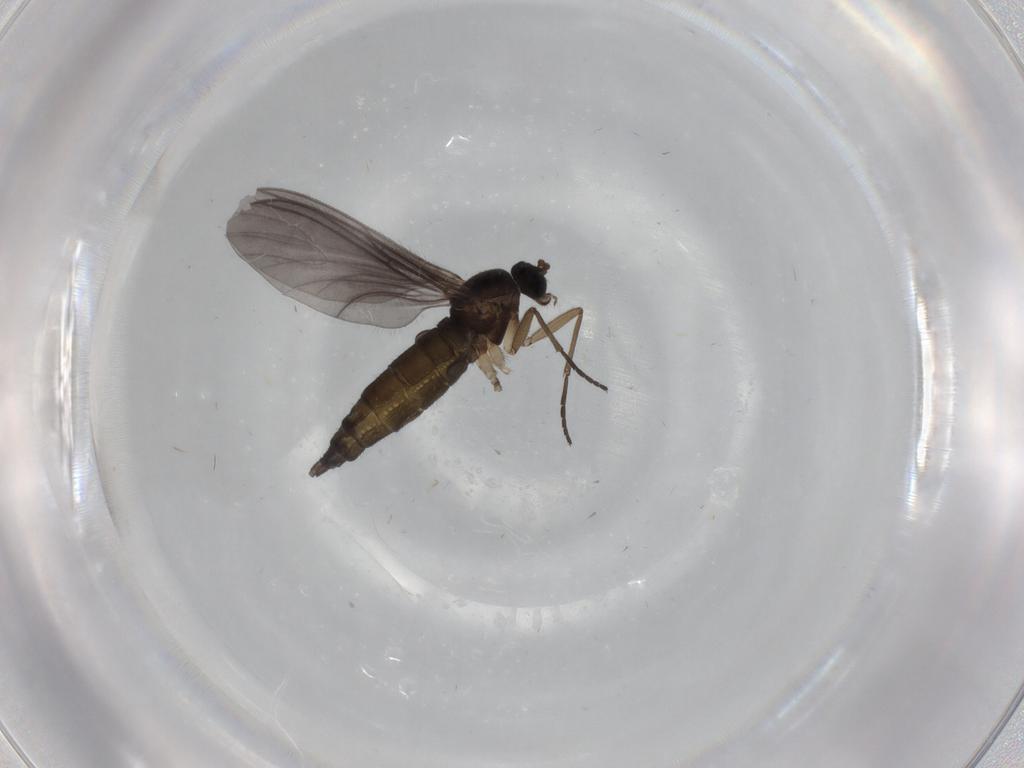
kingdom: Animalia
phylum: Arthropoda
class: Insecta
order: Diptera
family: Sciaridae
